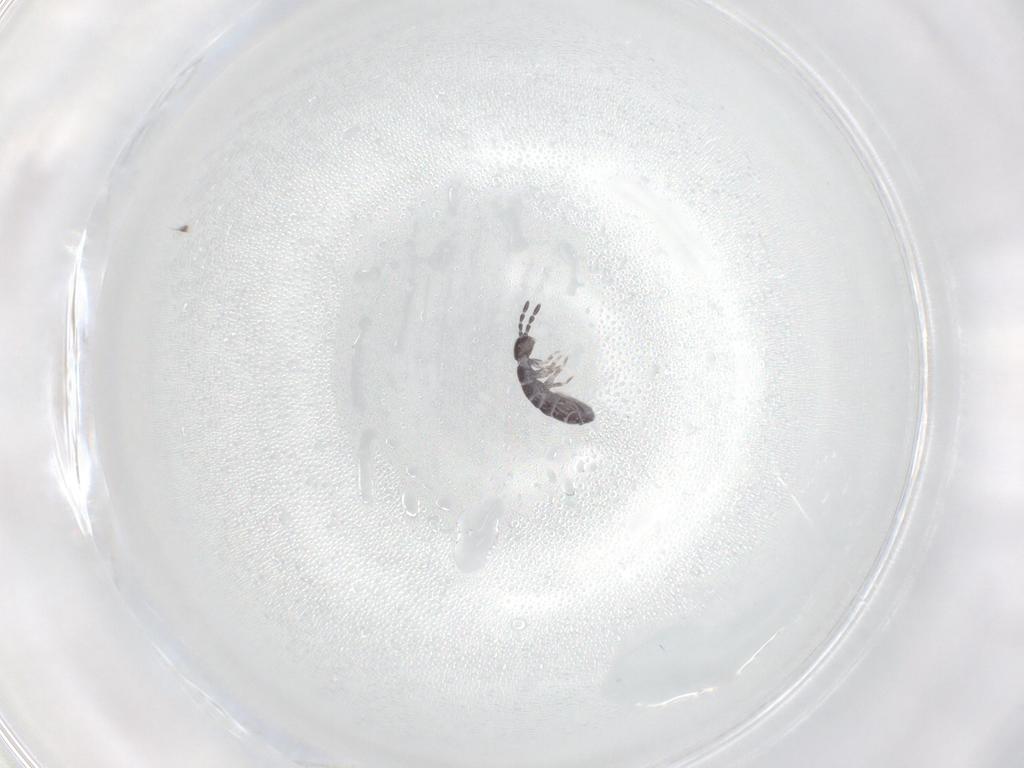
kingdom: Animalia
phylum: Arthropoda
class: Collembola
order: Entomobryomorpha
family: Isotomidae
